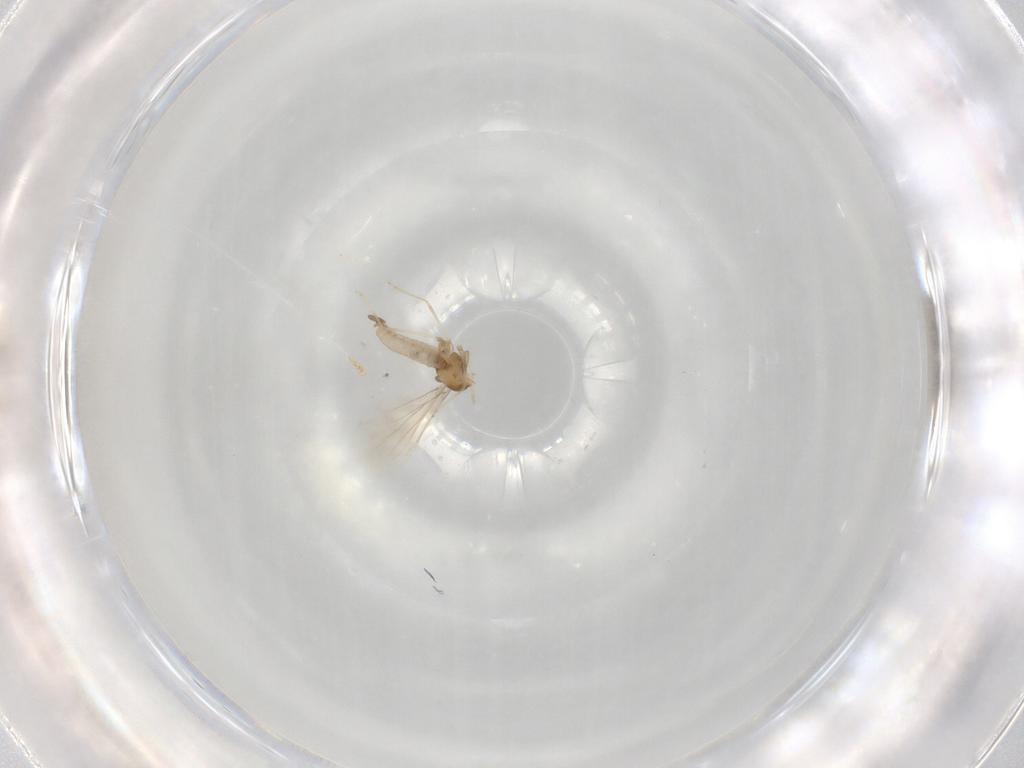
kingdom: Animalia
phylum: Arthropoda
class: Insecta
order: Diptera
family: Cecidomyiidae
